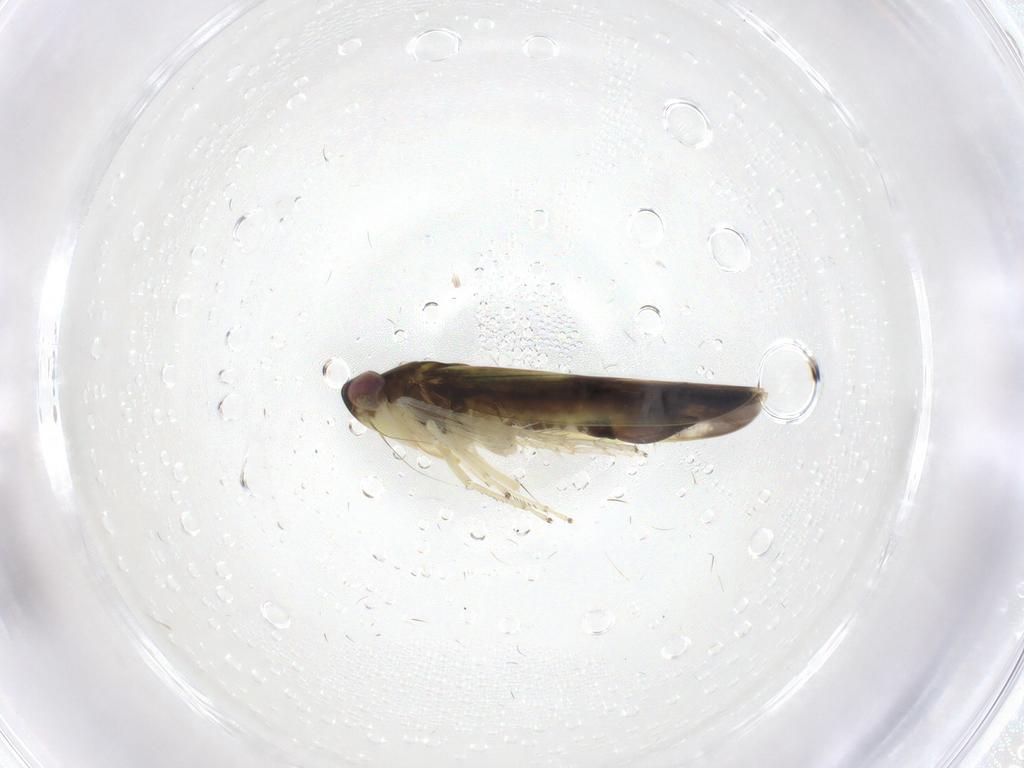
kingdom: Animalia
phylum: Arthropoda
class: Insecta
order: Hemiptera
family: Cicadellidae
